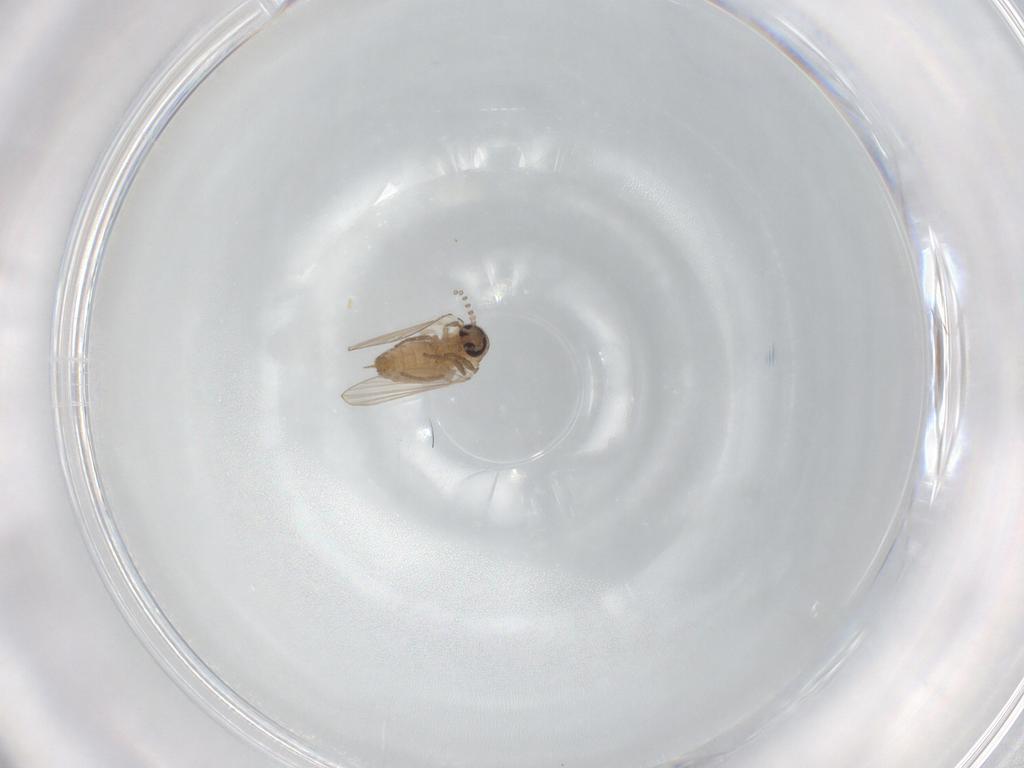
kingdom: Animalia
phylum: Arthropoda
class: Insecta
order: Diptera
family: Psychodidae
